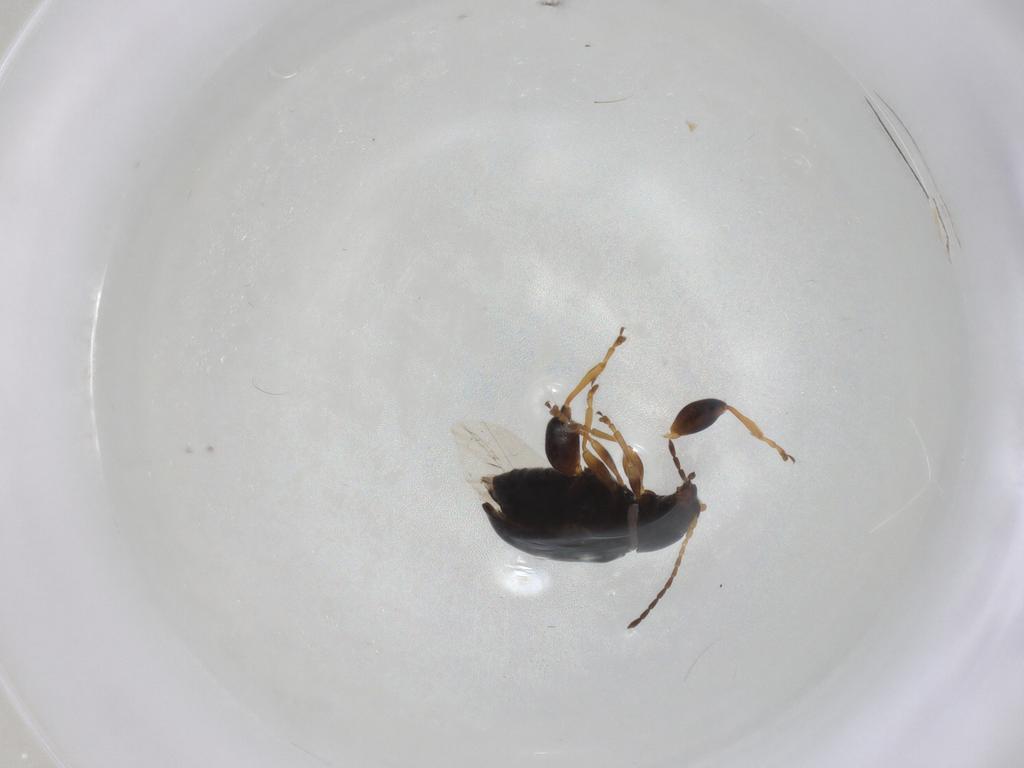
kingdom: Animalia
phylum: Arthropoda
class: Insecta
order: Coleoptera
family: Chrysomelidae
